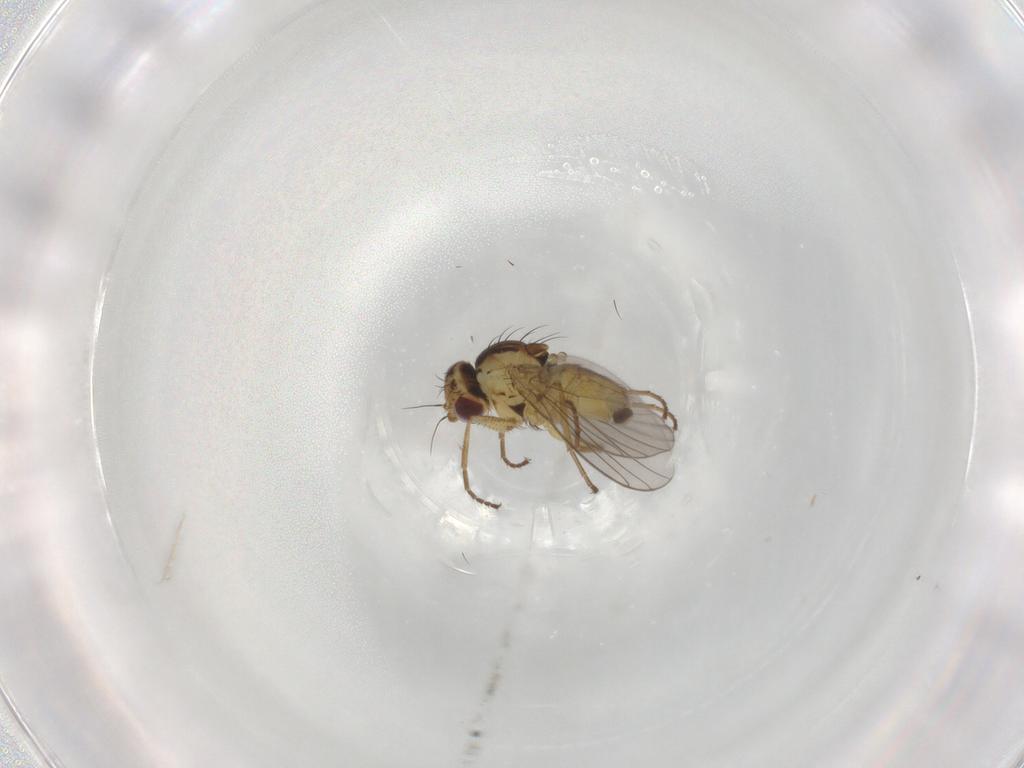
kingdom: Animalia
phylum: Arthropoda
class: Insecta
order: Diptera
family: Agromyzidae
